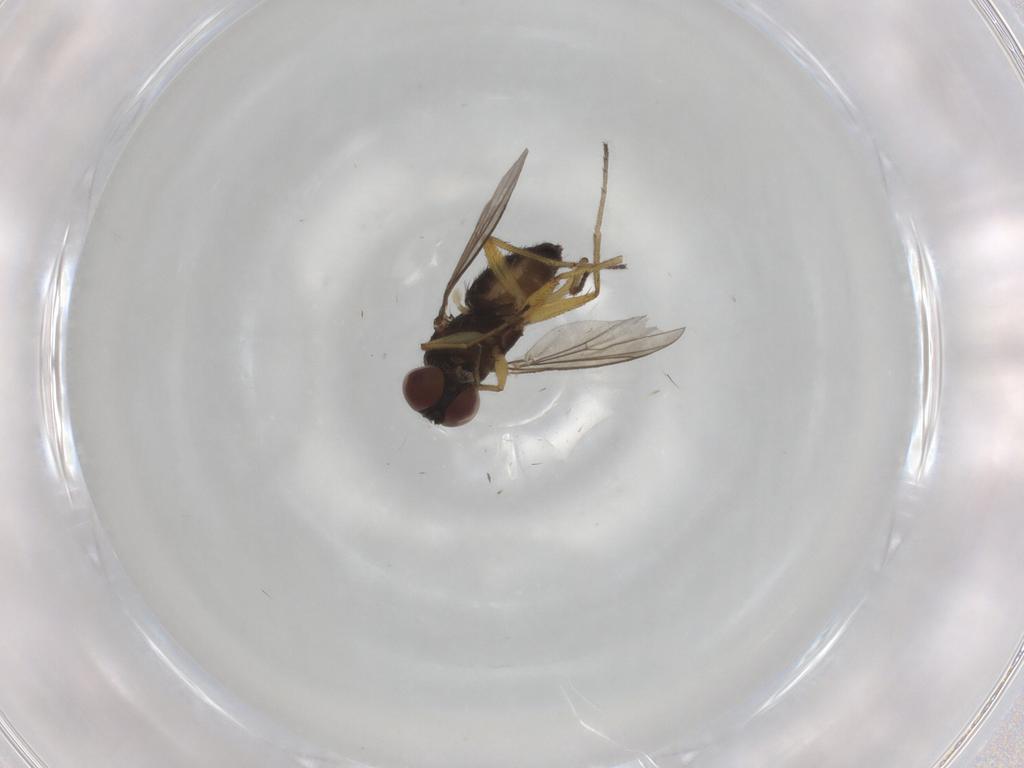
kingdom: Animalia
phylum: Arthropoda
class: Insecta
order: Diptera
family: Dolichopodidae
